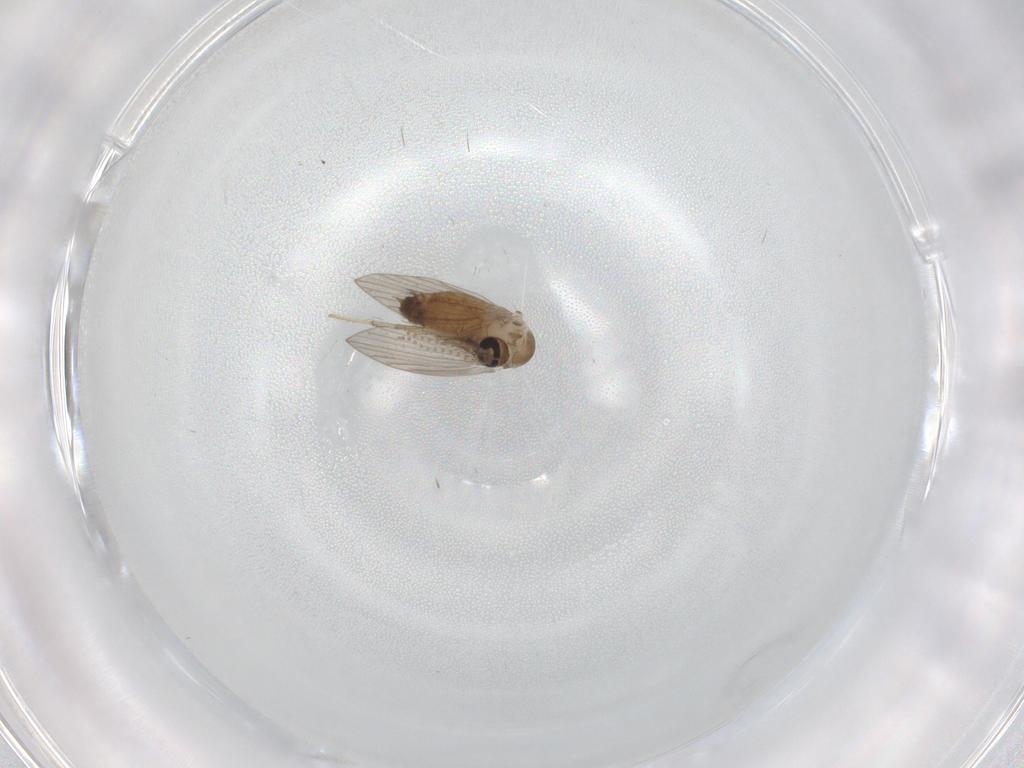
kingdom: Animalia
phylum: Arthropoda
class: Insecta
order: Diptera
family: Psychodidae
